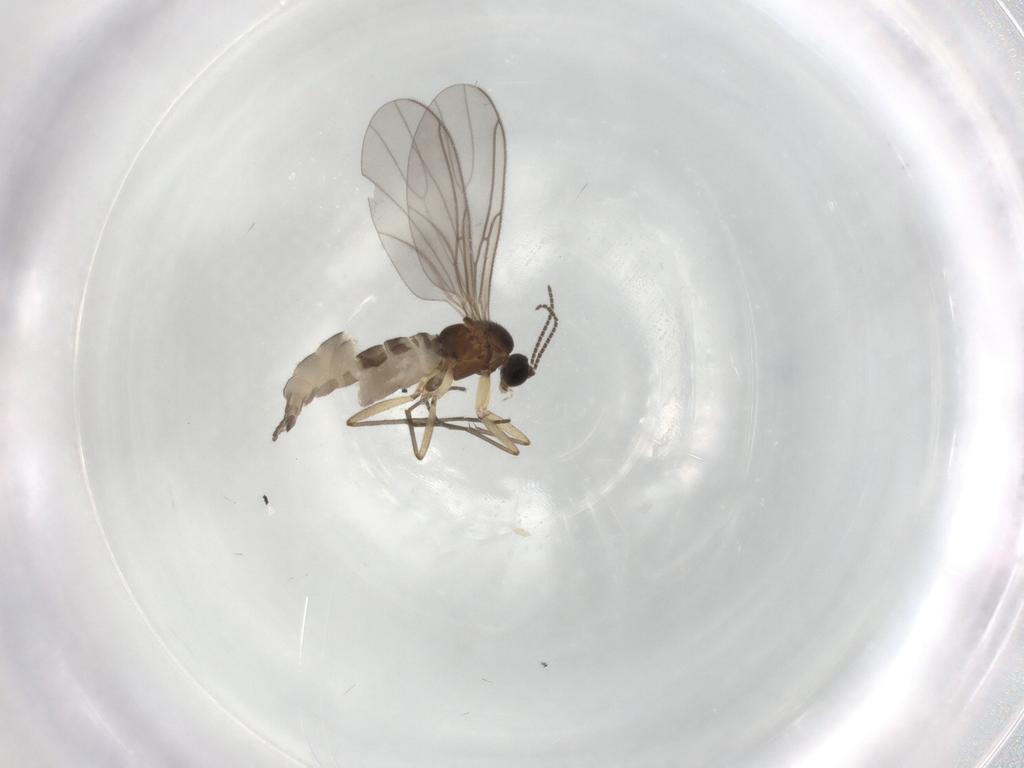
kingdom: Animalia
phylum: Arthropoda
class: Insecta
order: Diptera
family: Sciaridae
